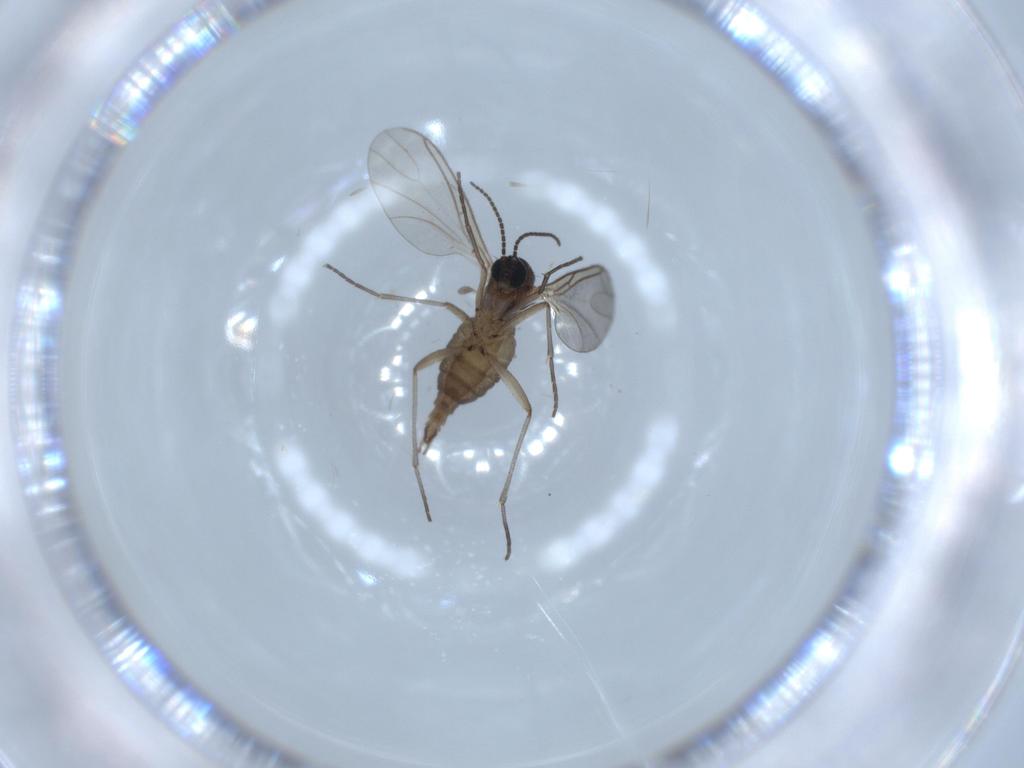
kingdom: Animalia
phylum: Arthropoda
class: Insecta
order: Diptera
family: Sciaridae
